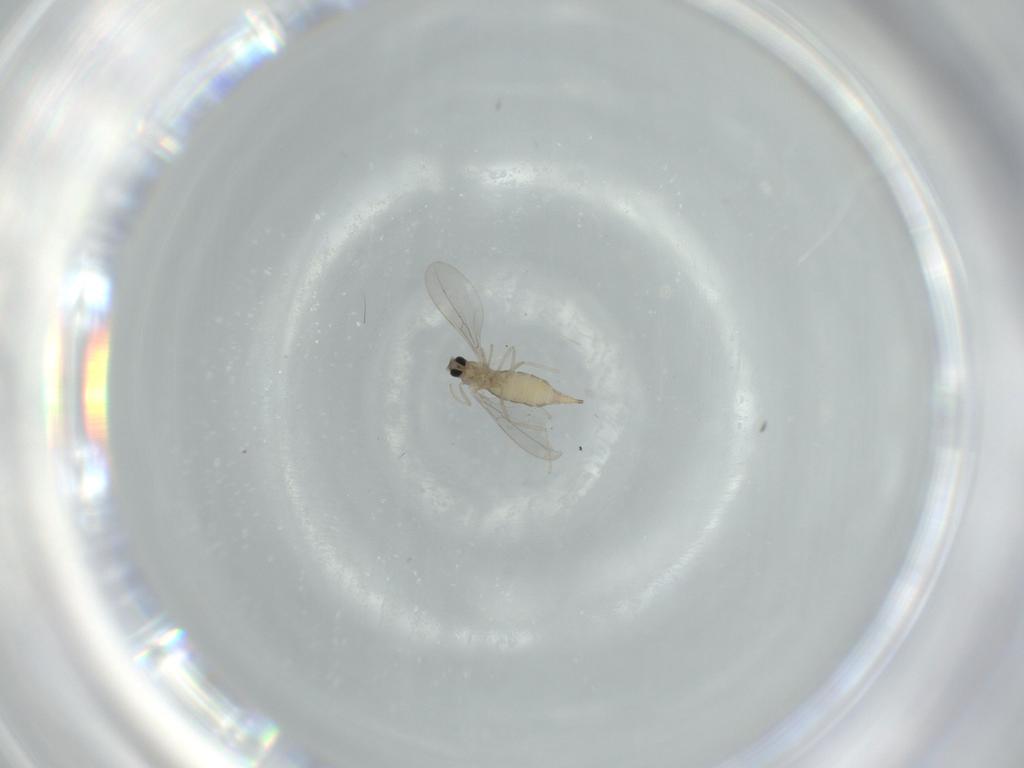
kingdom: Animalia
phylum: Arthropoda
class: Insecta
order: Diptera
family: Cecidomyiidae
